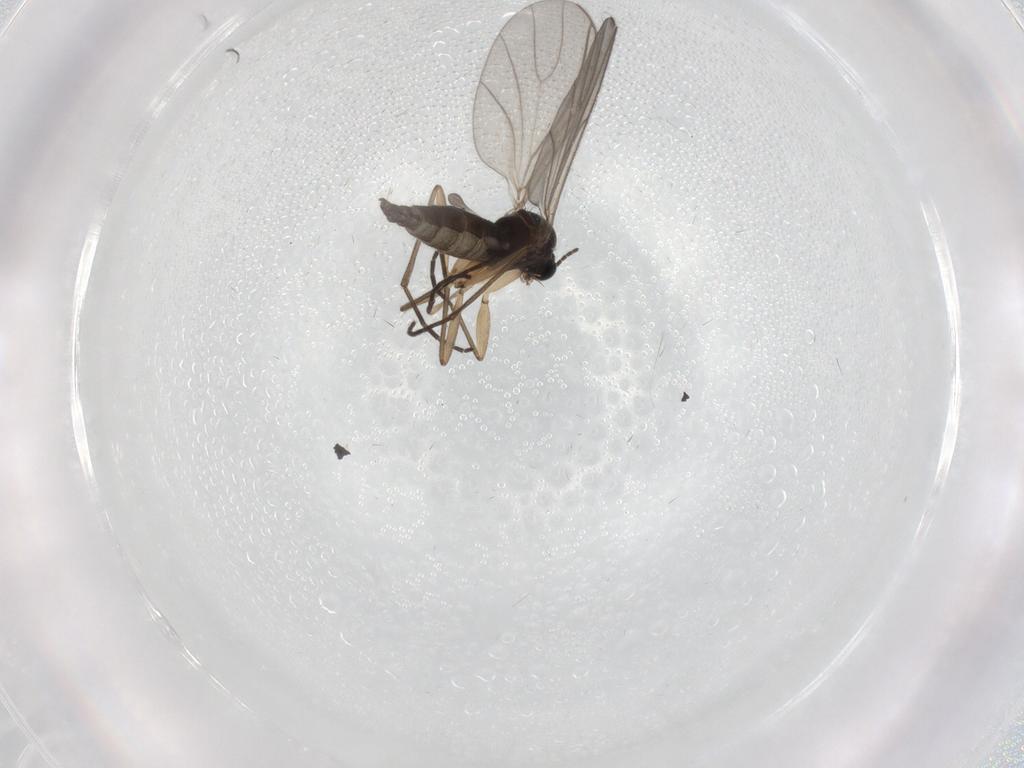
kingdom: Animalia
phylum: Arthropoda
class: Insecta
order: Diptera
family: Sciaridae
